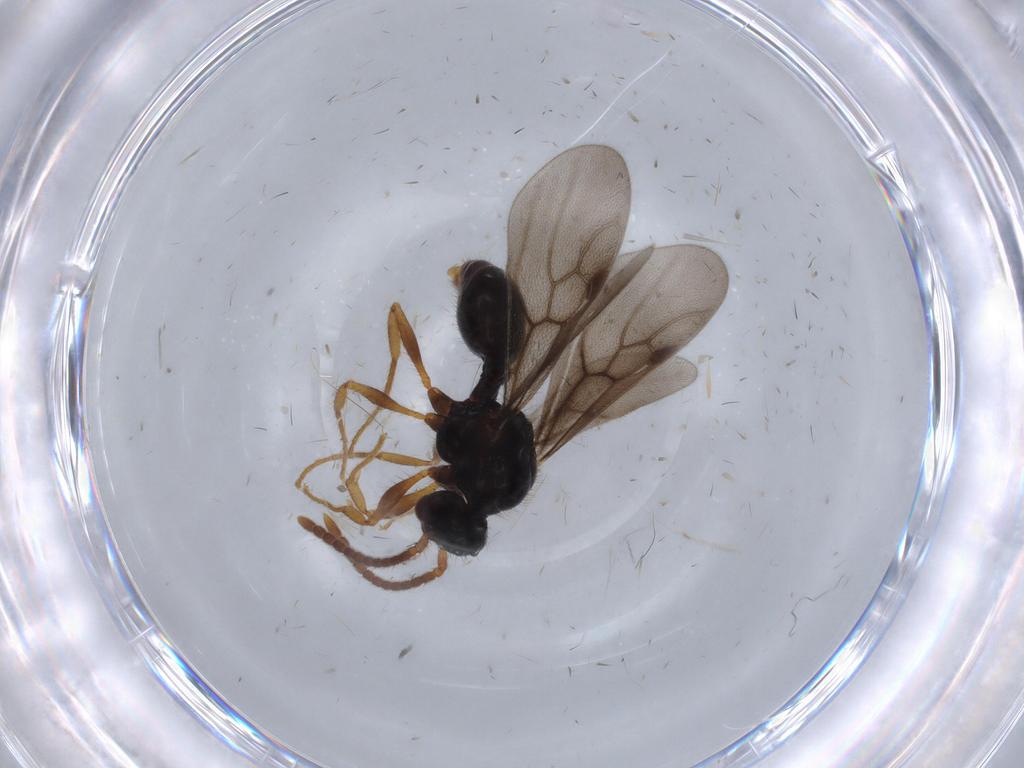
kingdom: Animalia
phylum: Arthropoda
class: Insecta
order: Hymenoptera
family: Formicidae
